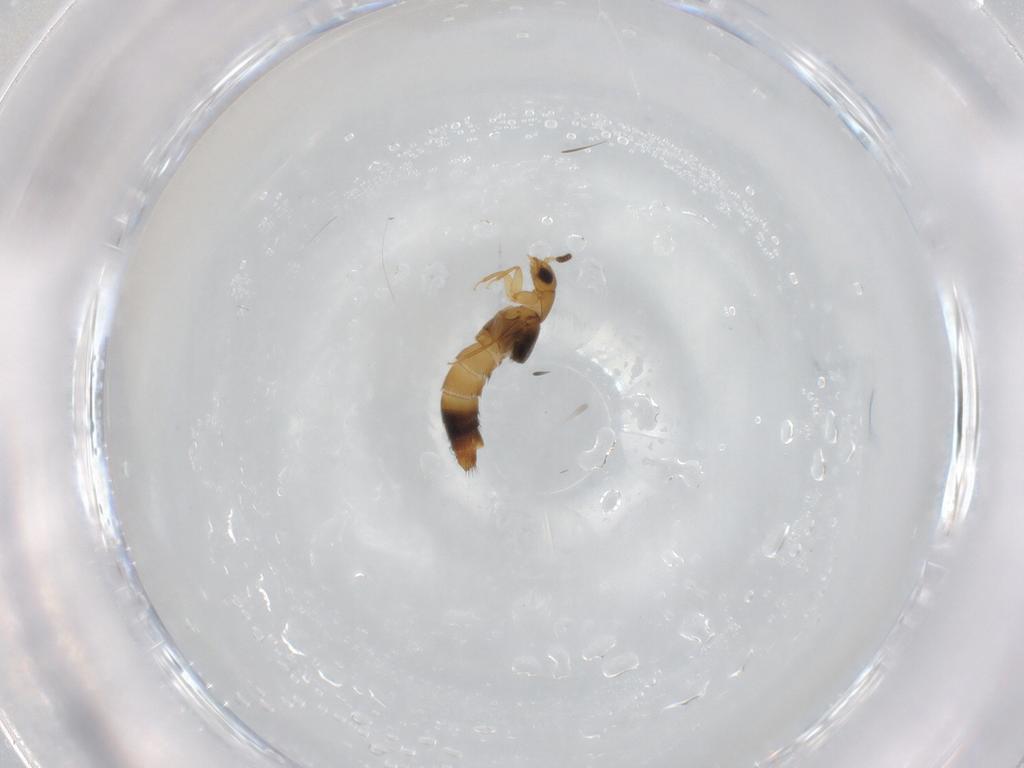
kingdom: Animalia
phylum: Arthropoda
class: Insecta
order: Coleoptera
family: Staphylinidae
